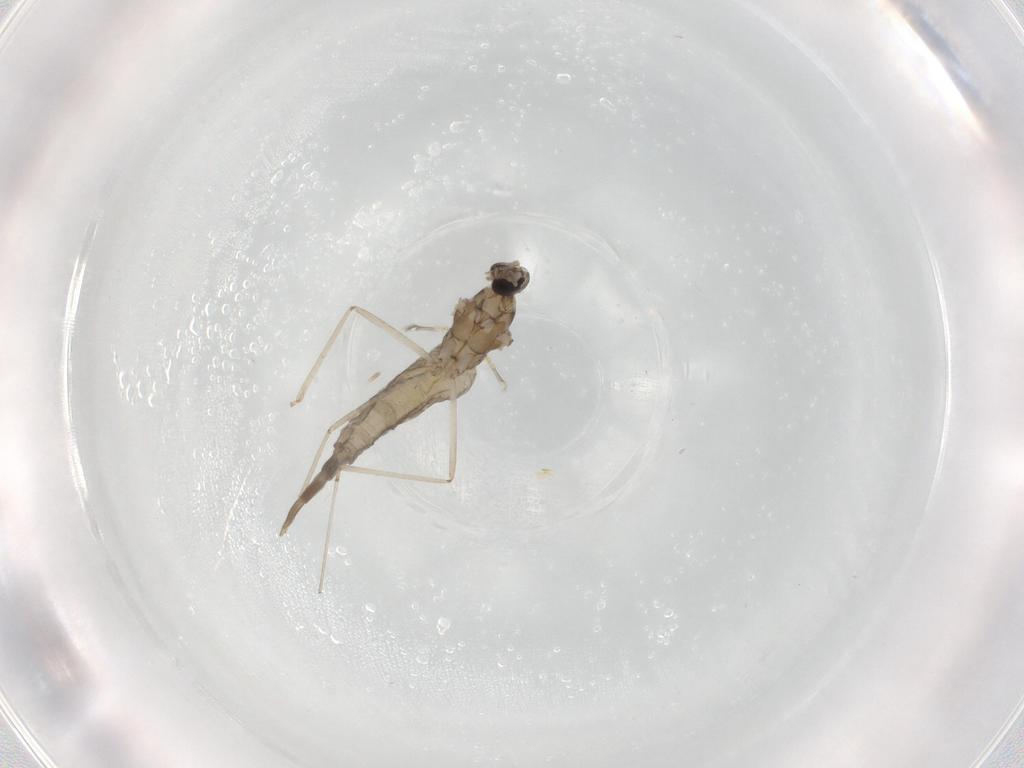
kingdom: Animalia
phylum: Arthropoda
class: Insecta
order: Diptera
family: Cecidomyiidae
